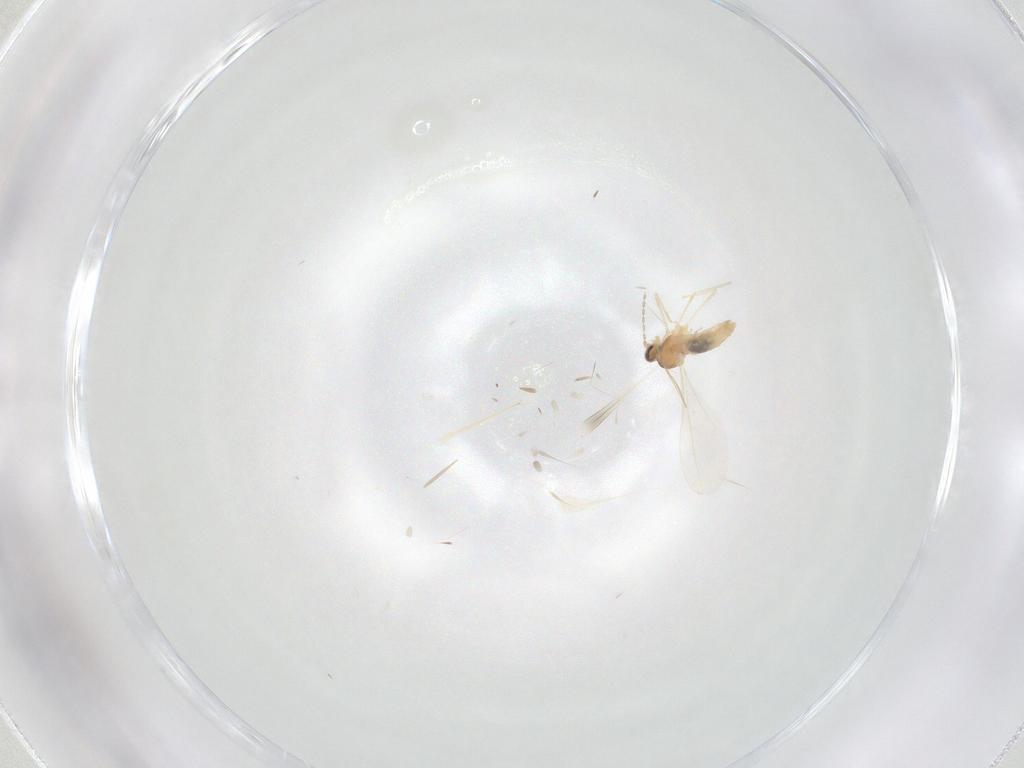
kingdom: Animalia
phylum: Arthropoda
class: Insecta
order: Diptera
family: Cecidomyiidae
